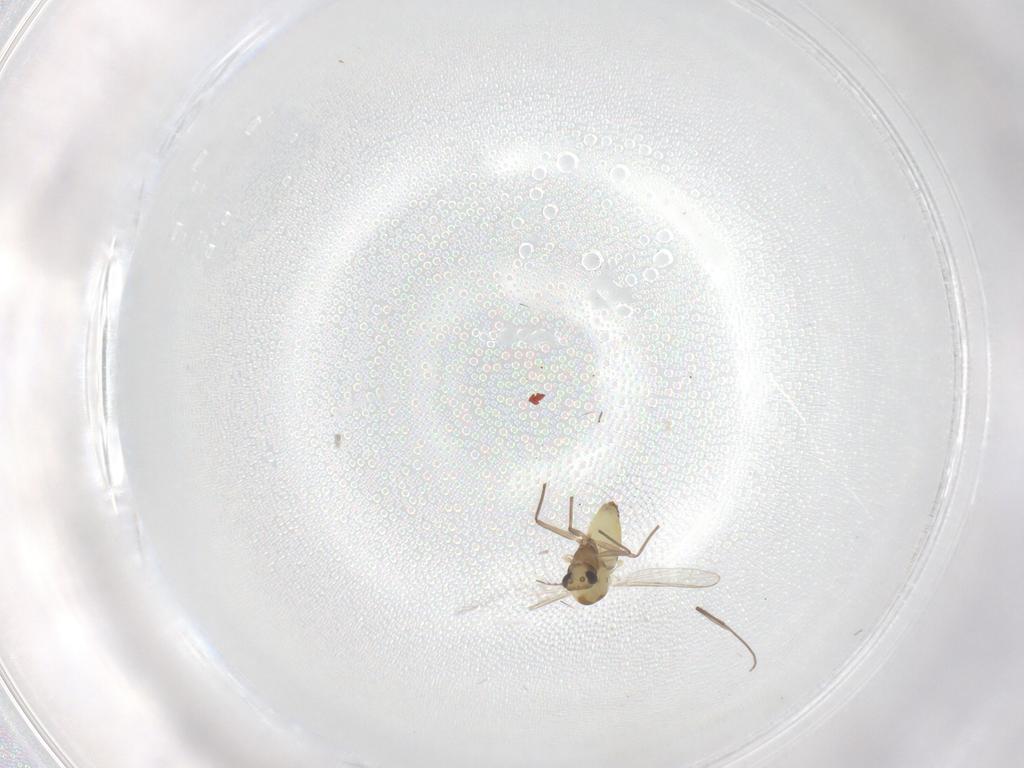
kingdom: Animalia
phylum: Arthropoda
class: Insecta
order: Diptera
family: Chironomidae
